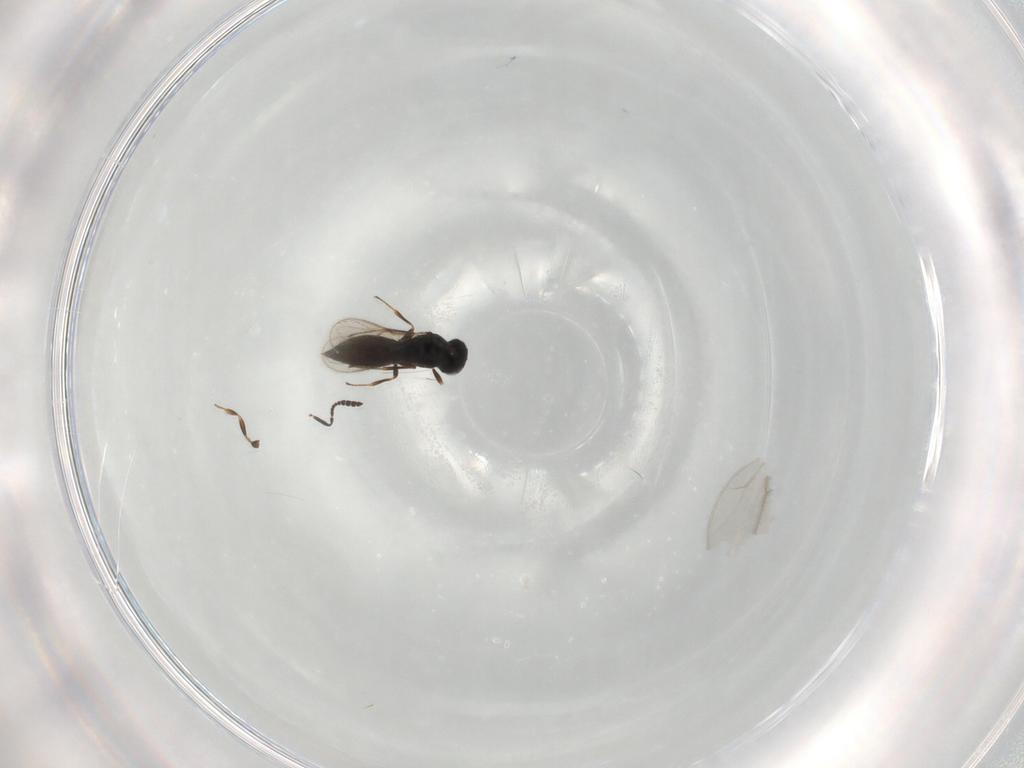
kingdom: Animalia
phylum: Arthropoda
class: Insecta
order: Hymenoptera
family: Scelionidae
